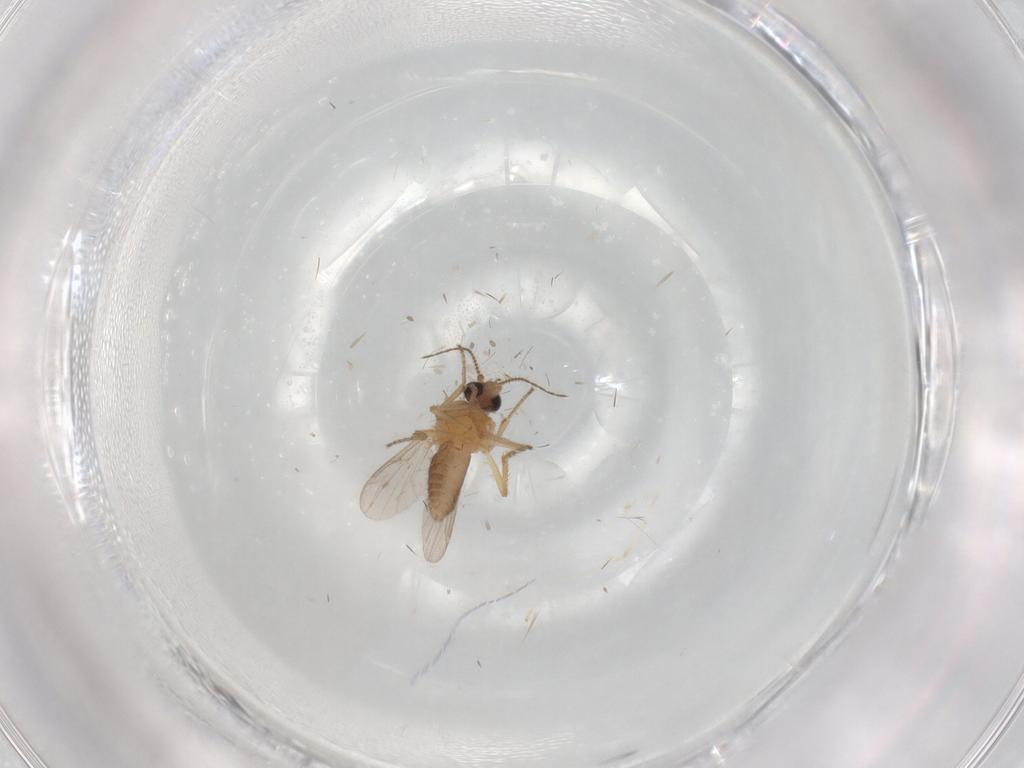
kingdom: Animalia
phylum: Arthropoda
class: Insecta
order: Diptera
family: Ceratopogonidae
